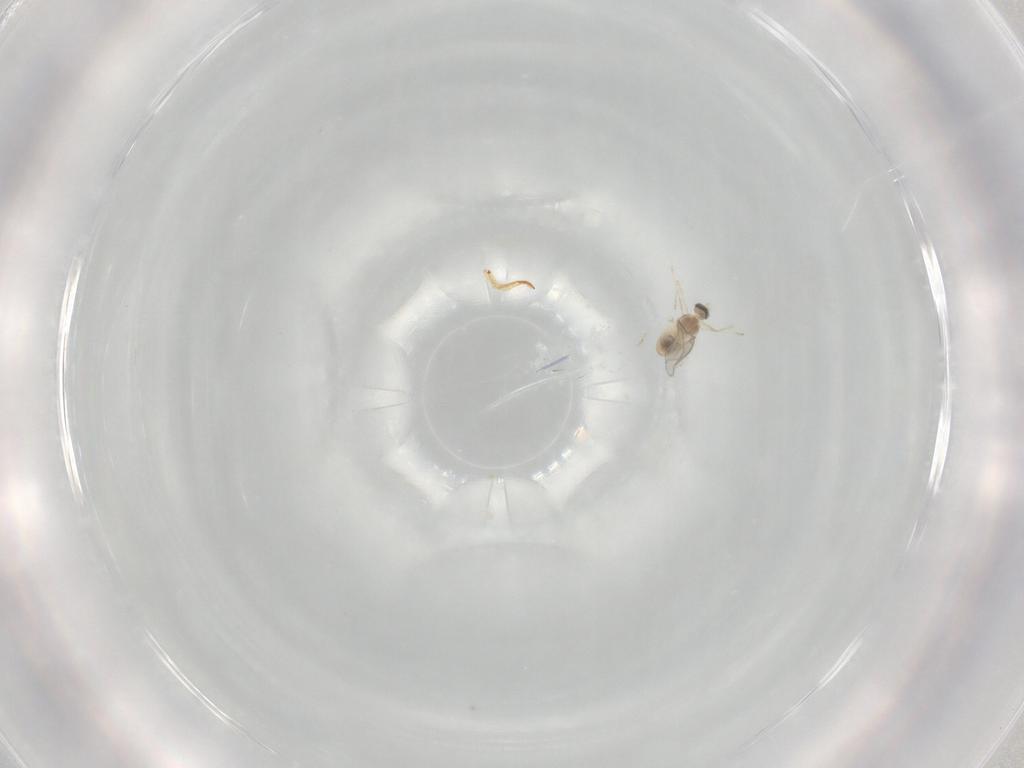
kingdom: Animalia
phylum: Arthropoda
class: Insecta
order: Diptera
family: Cecidomyiidae
